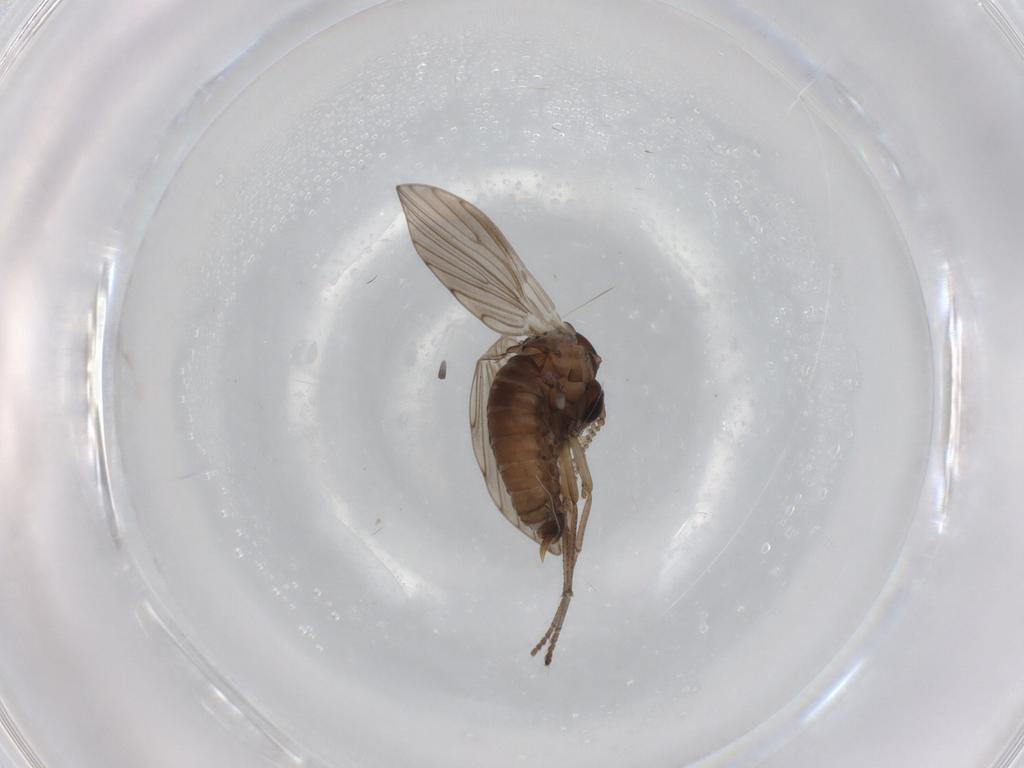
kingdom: Animalia
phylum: Arthropoda
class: Insecta
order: Diptera
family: Psychodidae
